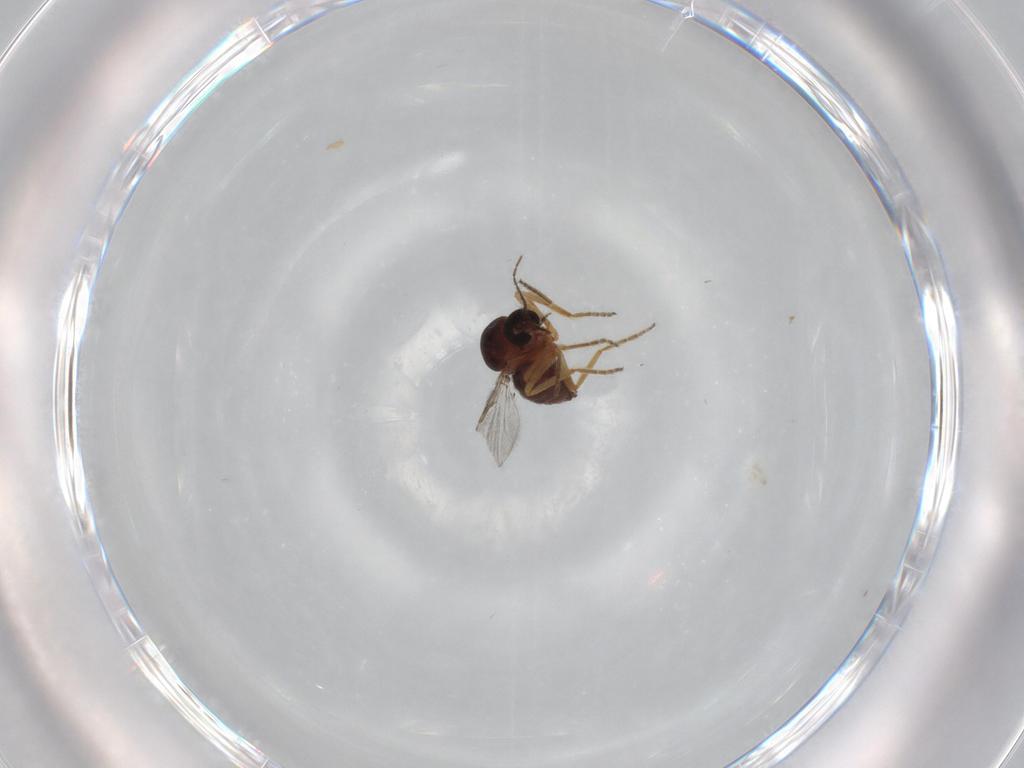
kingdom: Animalia
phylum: Arthropoda
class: Insecta
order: Diptera
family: Ceratopogonidae
